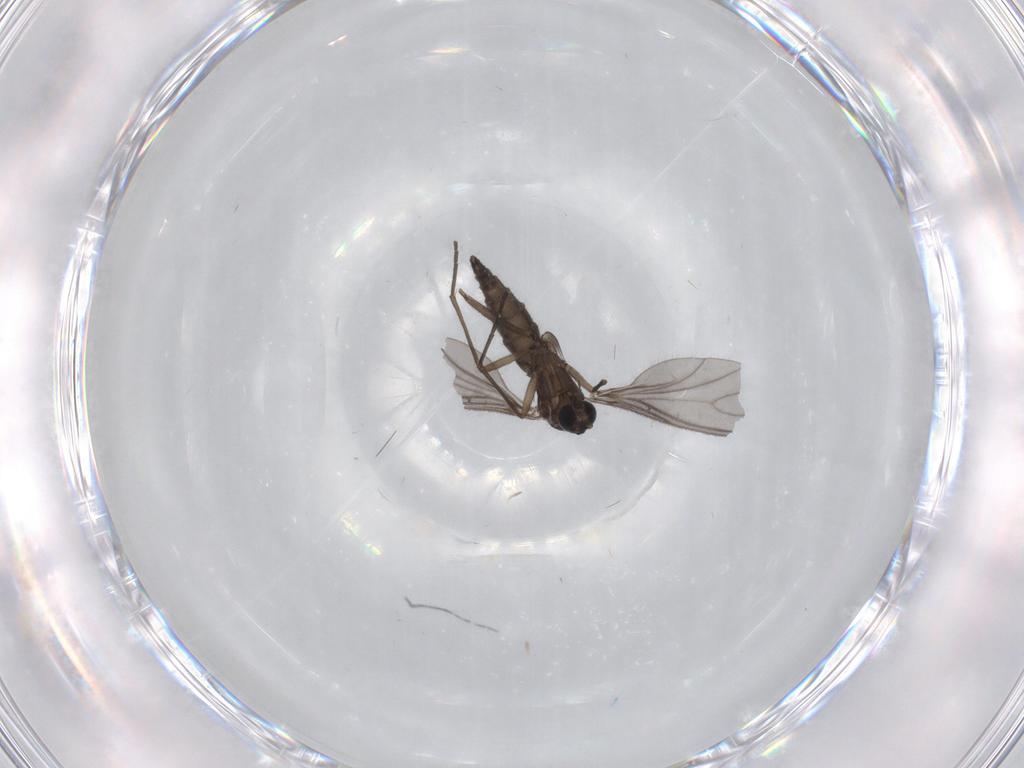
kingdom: Animalia
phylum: Arthropoda
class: Insecta
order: Diptera
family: Sciaridae
